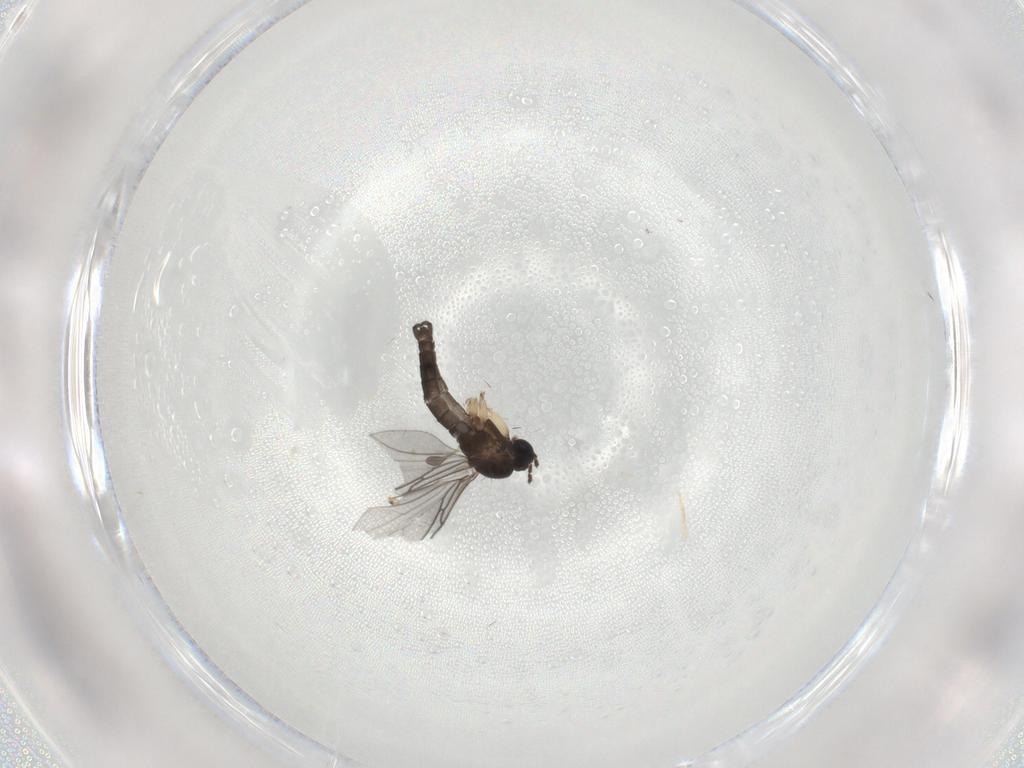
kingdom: Animalia
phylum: Arthropoda
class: Insecta
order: Diptera
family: Sciaridae
